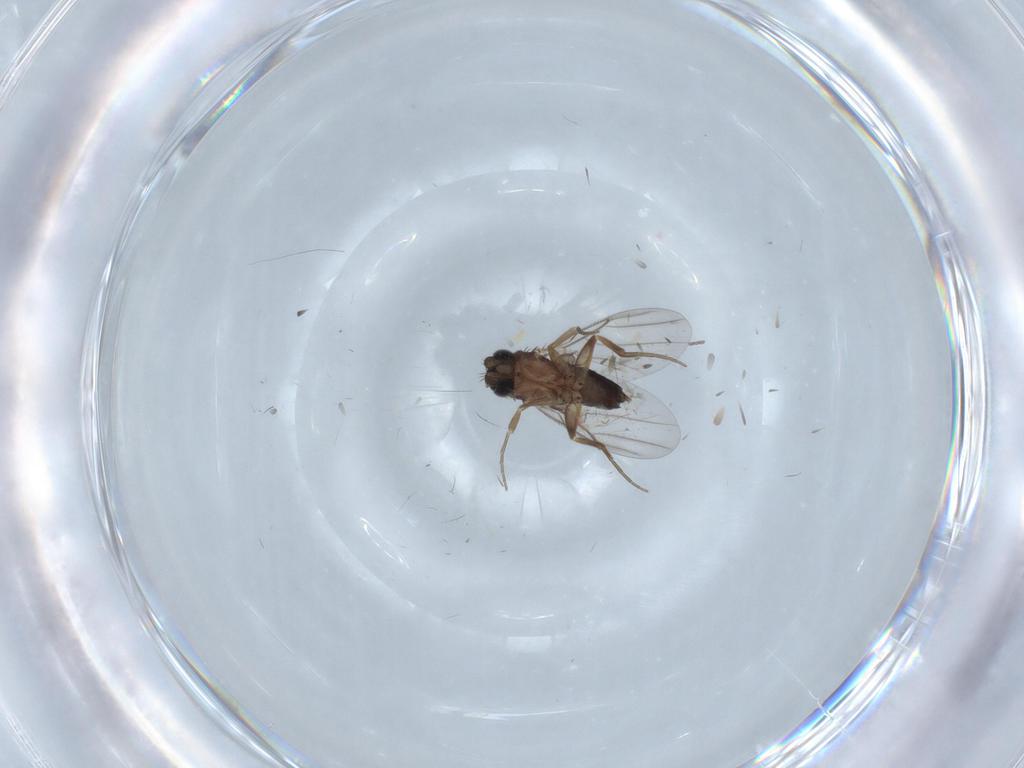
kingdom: Animalia
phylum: Arthropoda
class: Insecta
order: Diptera
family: Phoridae
